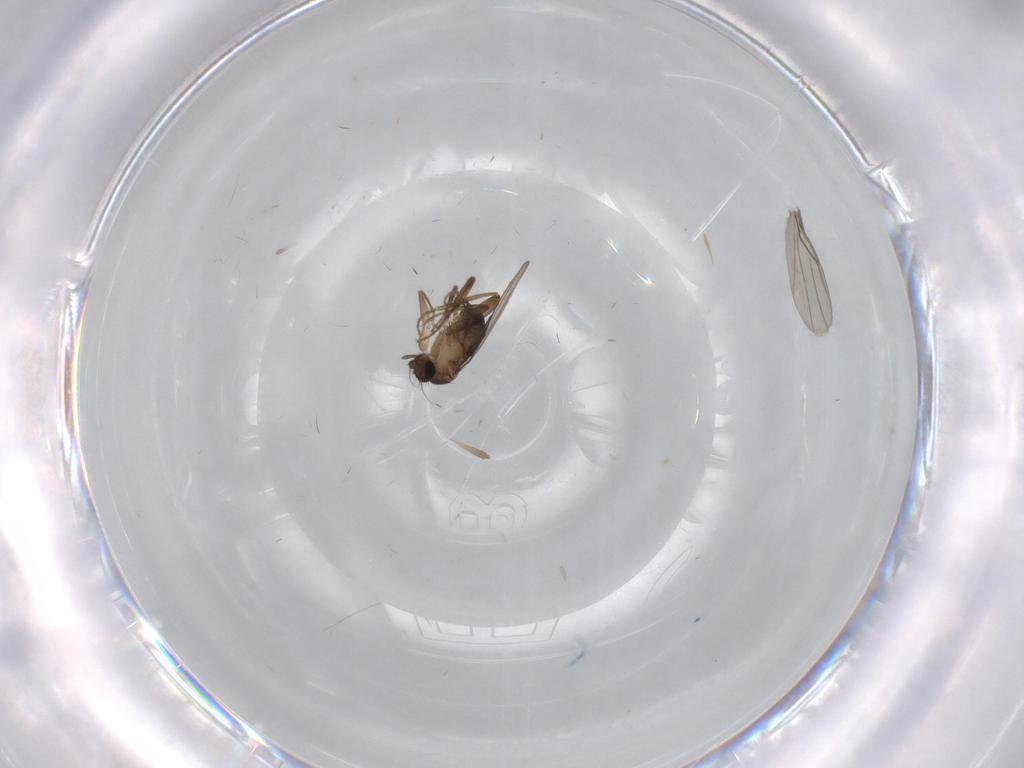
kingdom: Animalia
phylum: Arthropoda
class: Insecta
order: Diptera
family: Psychodidae
